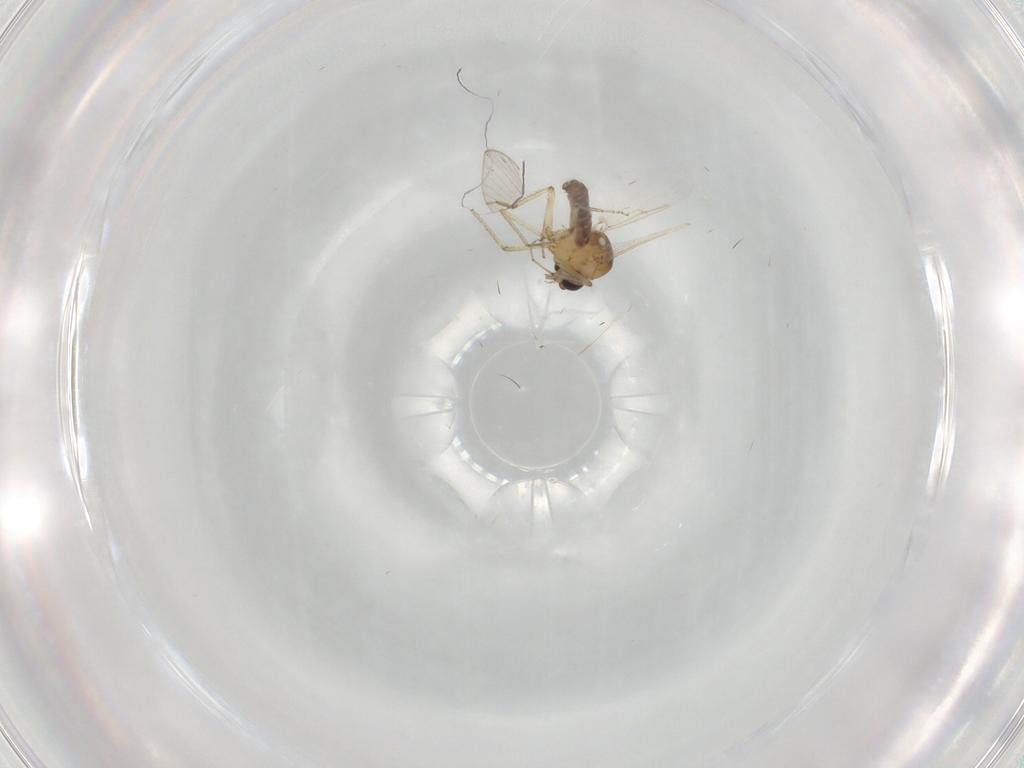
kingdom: Animalia
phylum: Arthropoda
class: Insecta
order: Diptera
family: Ceratopogonidae
